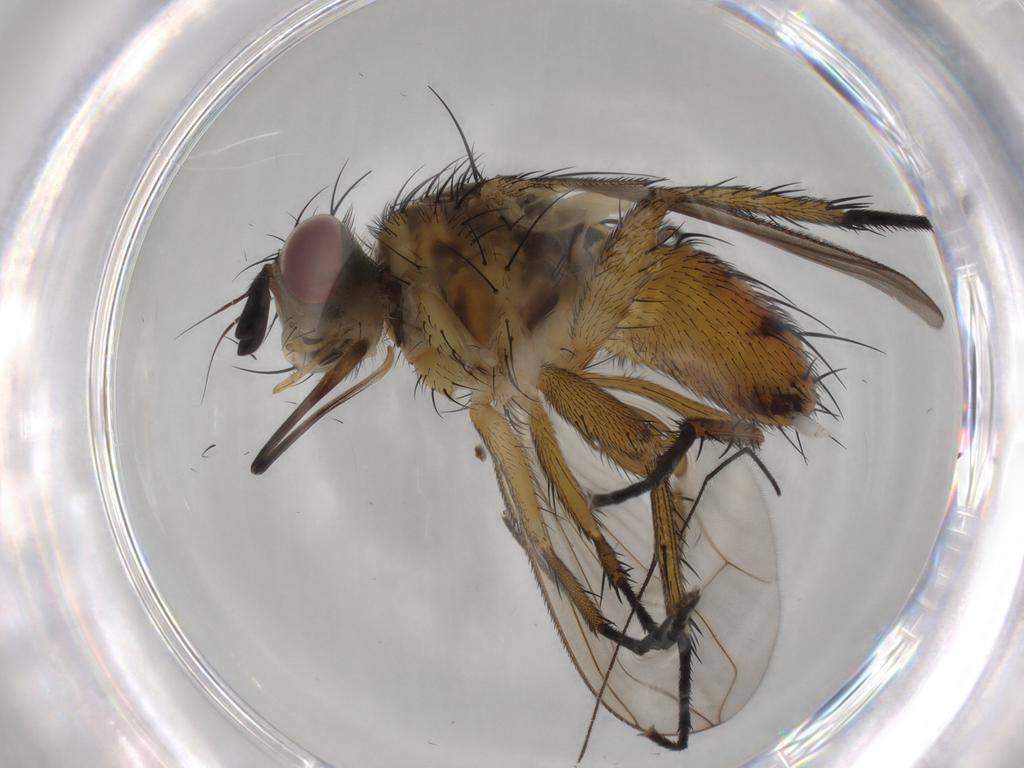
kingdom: Animalia
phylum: Arthropoda
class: Insecta
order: Diptera
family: Tachinidae
